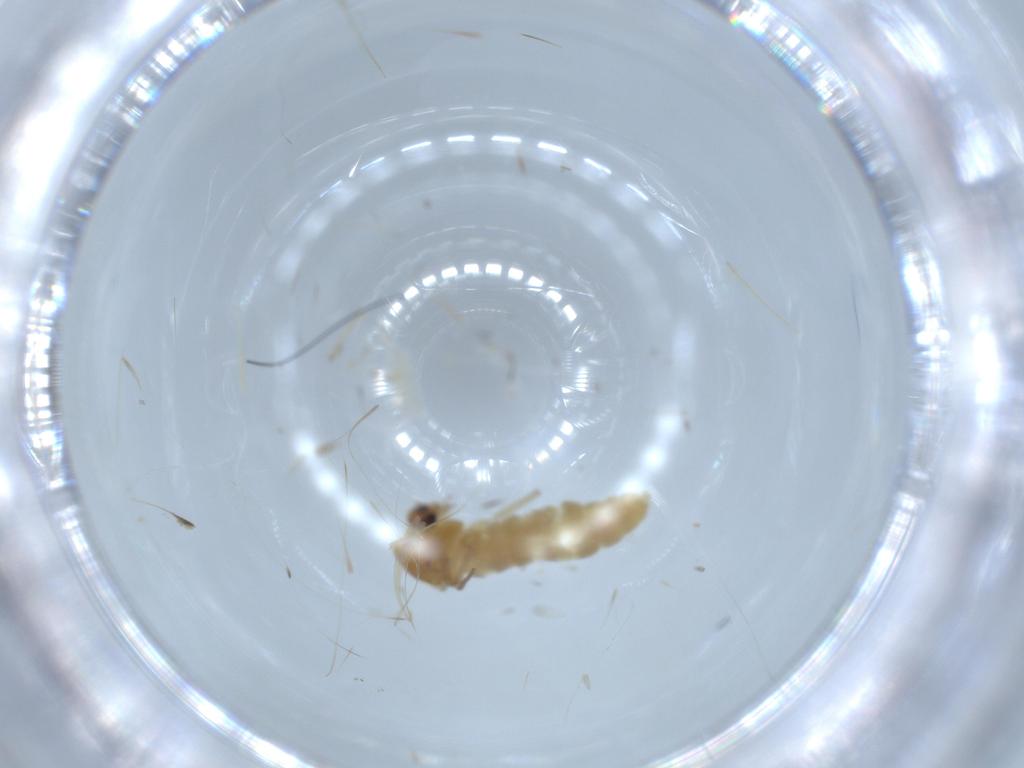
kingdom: Animalia
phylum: Arthropoda
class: Insecta
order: Diptera
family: Chironomidae
